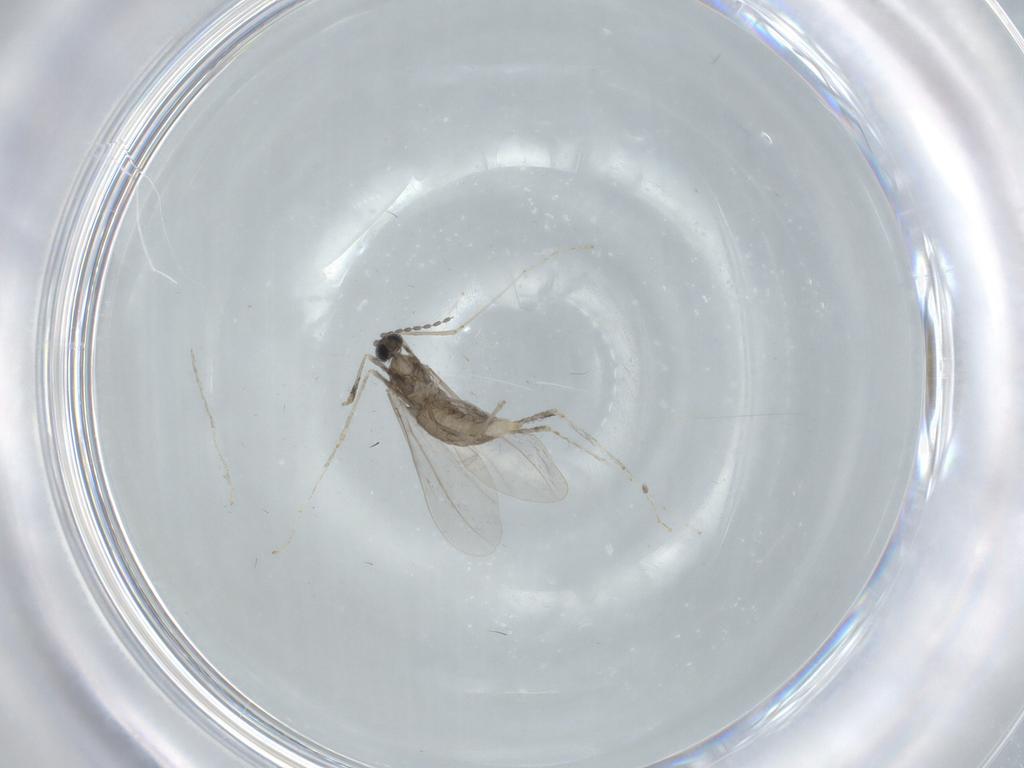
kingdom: Animalia
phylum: Arthropoda
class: Insecta
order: Diptera
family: Cecidomyiidae
